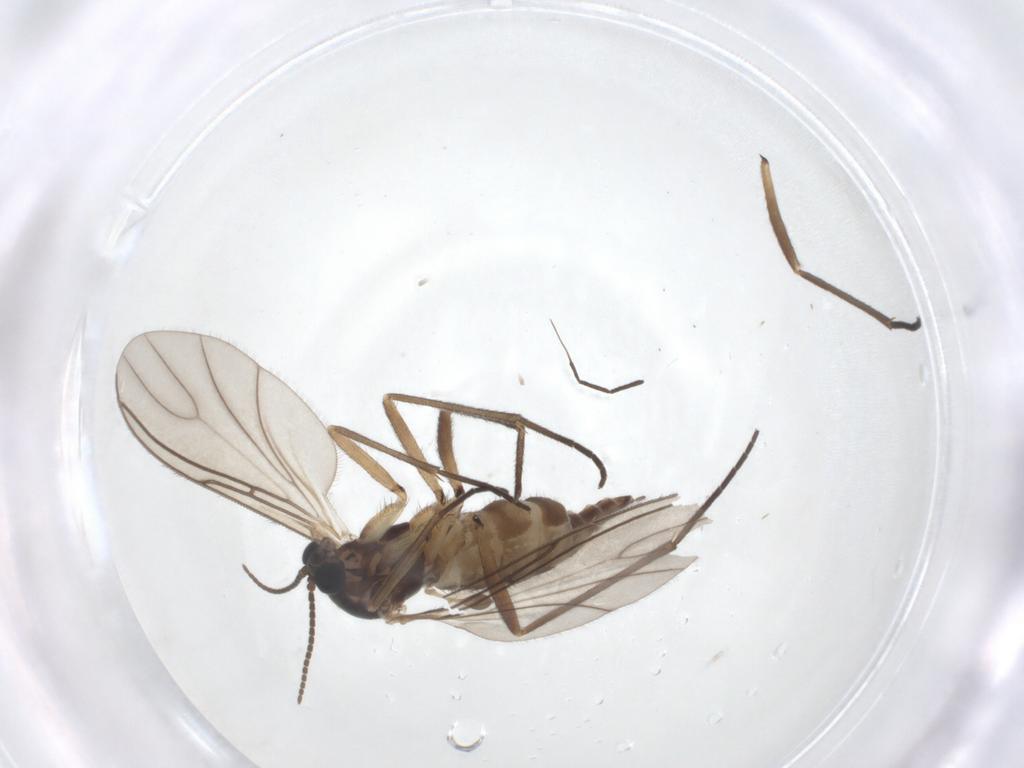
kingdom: Animalia
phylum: Arthropoda
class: Insecta
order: Diptera
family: Sciaridae
